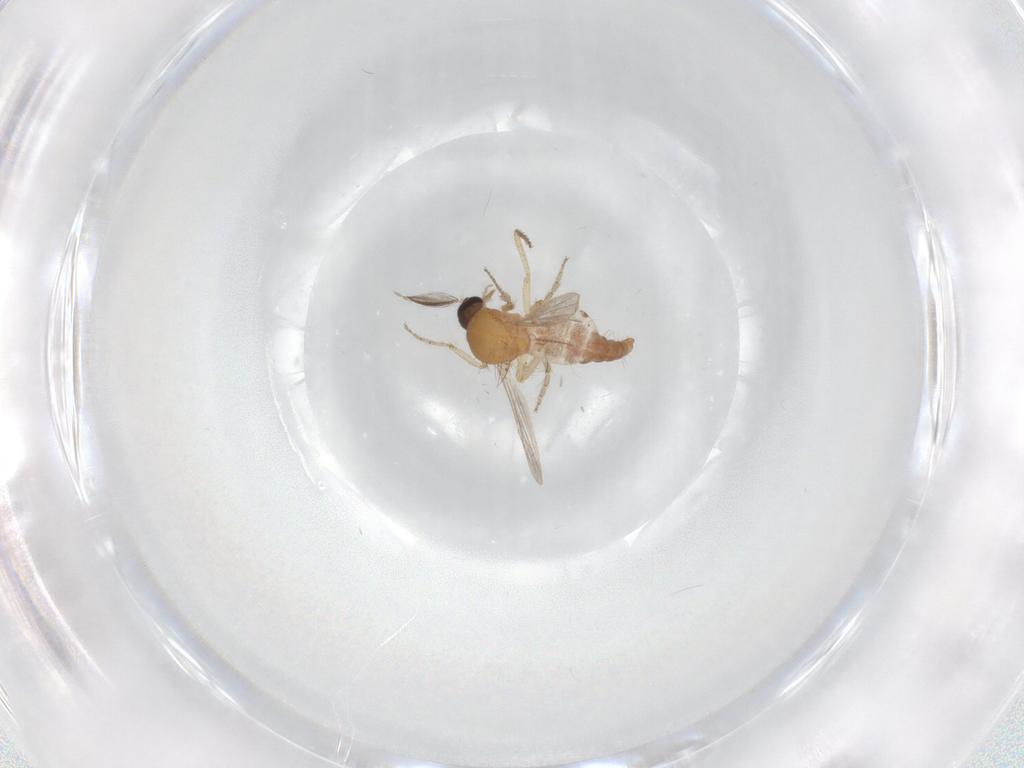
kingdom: Animalia
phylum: Arthropoda
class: Insecta
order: Diptera
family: Ceratopogonidae
